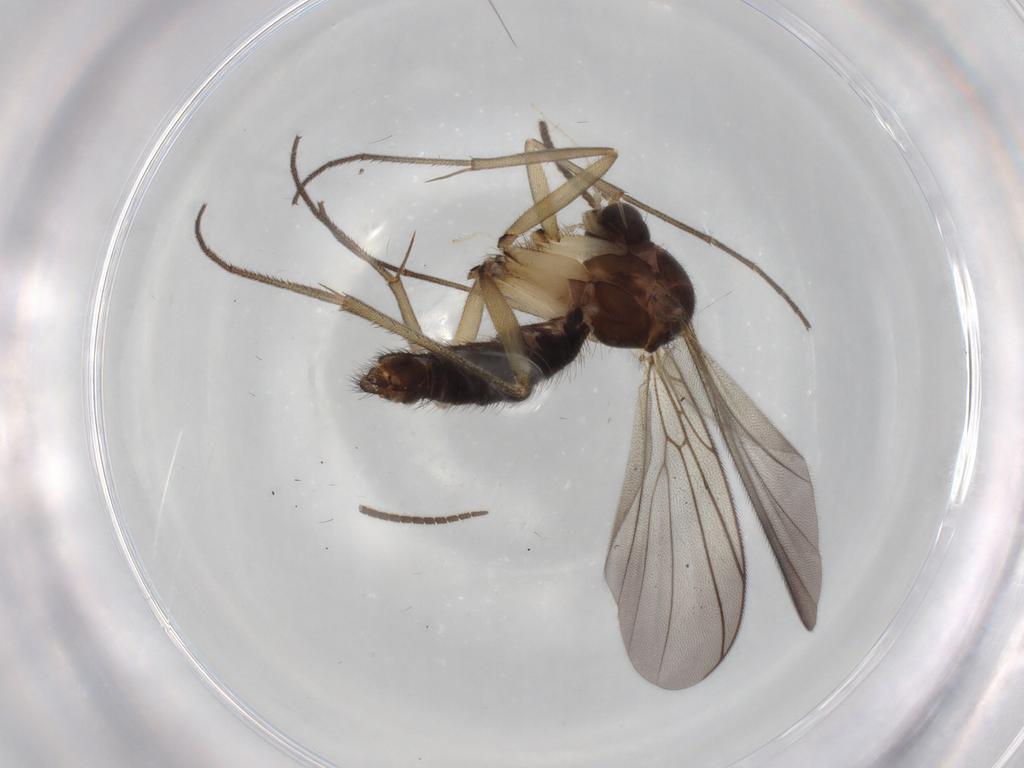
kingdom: Animalia
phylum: Arthropoda
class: Insecta
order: Diptera
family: Mycetophilidae
